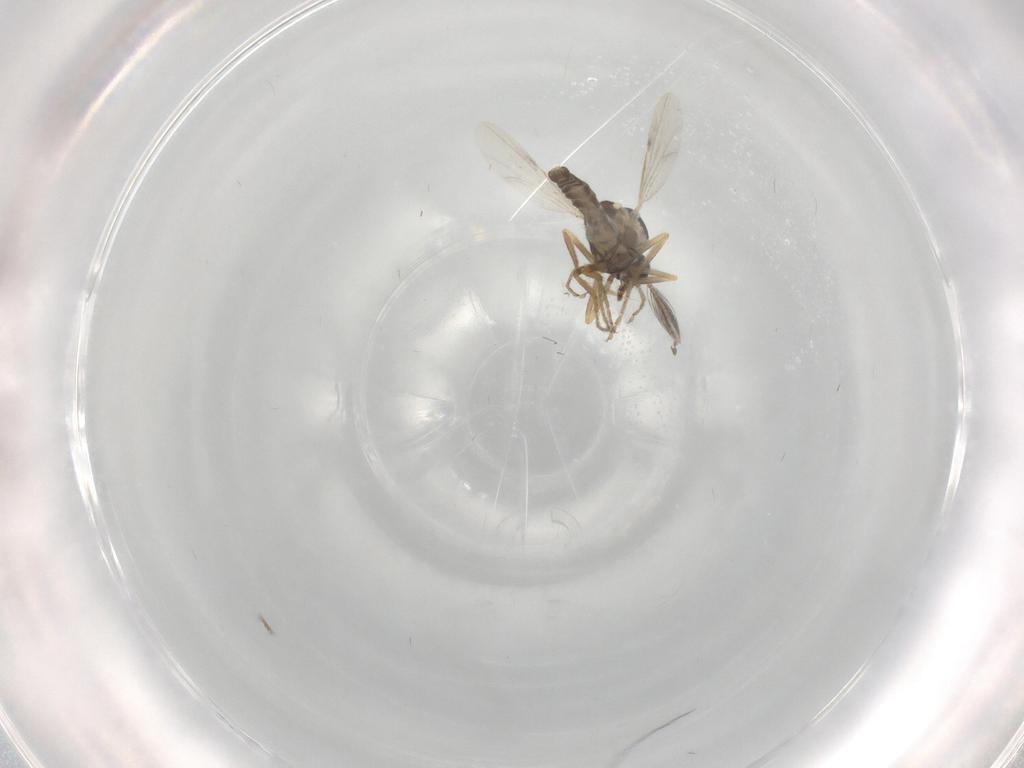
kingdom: Animalia
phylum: Arthropoda
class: Insecta
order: Diptera
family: Ceratopogonidae
